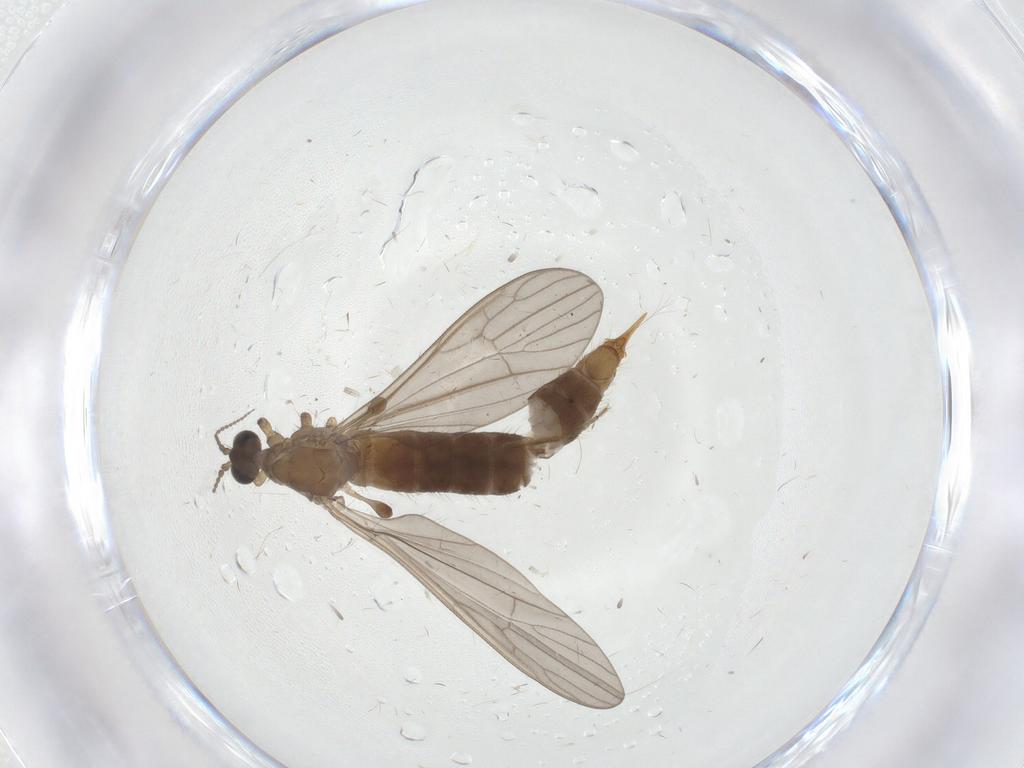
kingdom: Animalia
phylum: Arthropoda
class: Insecta
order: Diptera
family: Limoniidae
